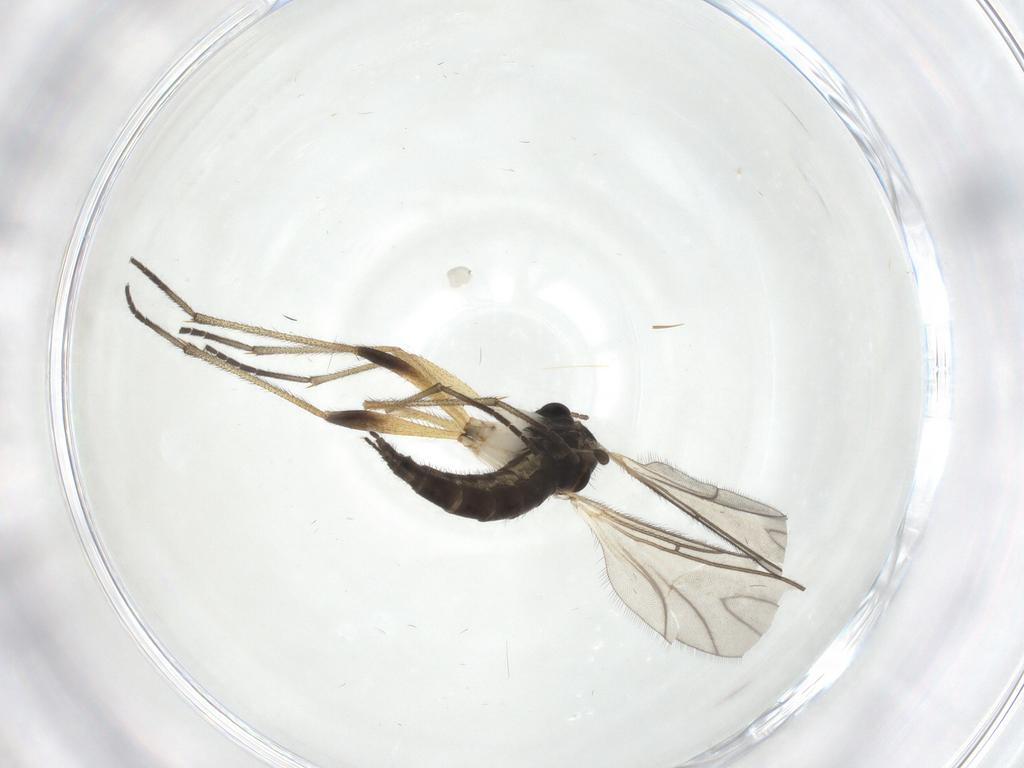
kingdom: Animalia
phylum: Arthropoda
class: Insecta
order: Diptera
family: Sciaridae
